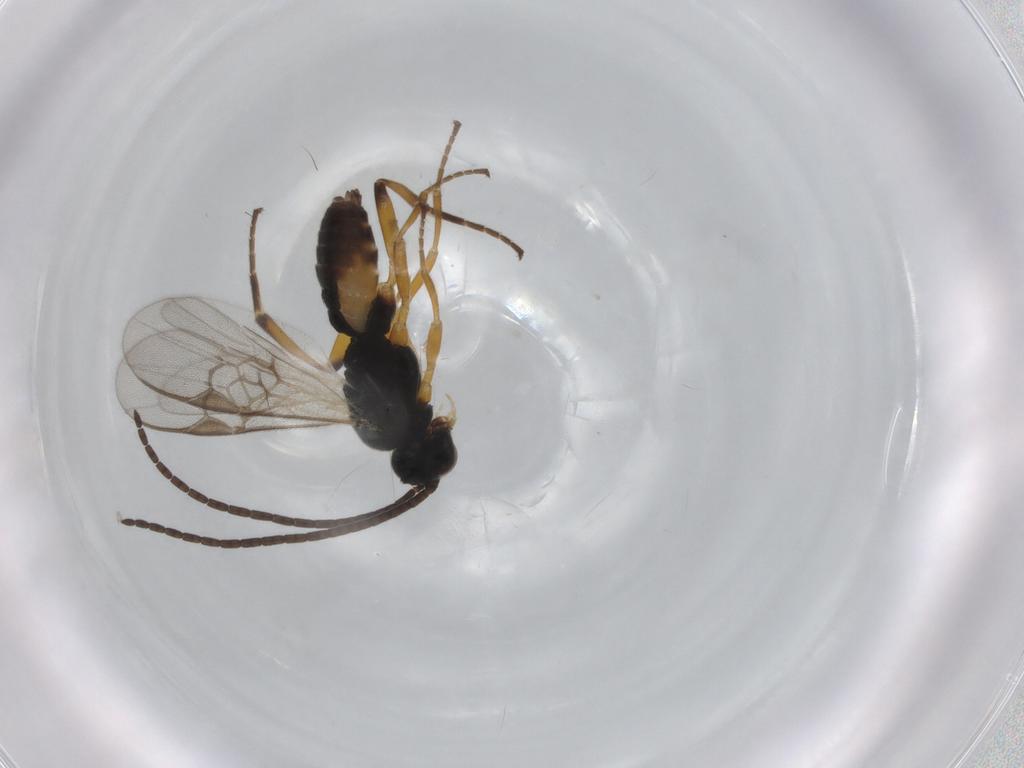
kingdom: Animalia
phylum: Arthropoda
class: Insecta
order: Hymenoptera
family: Braconidae
